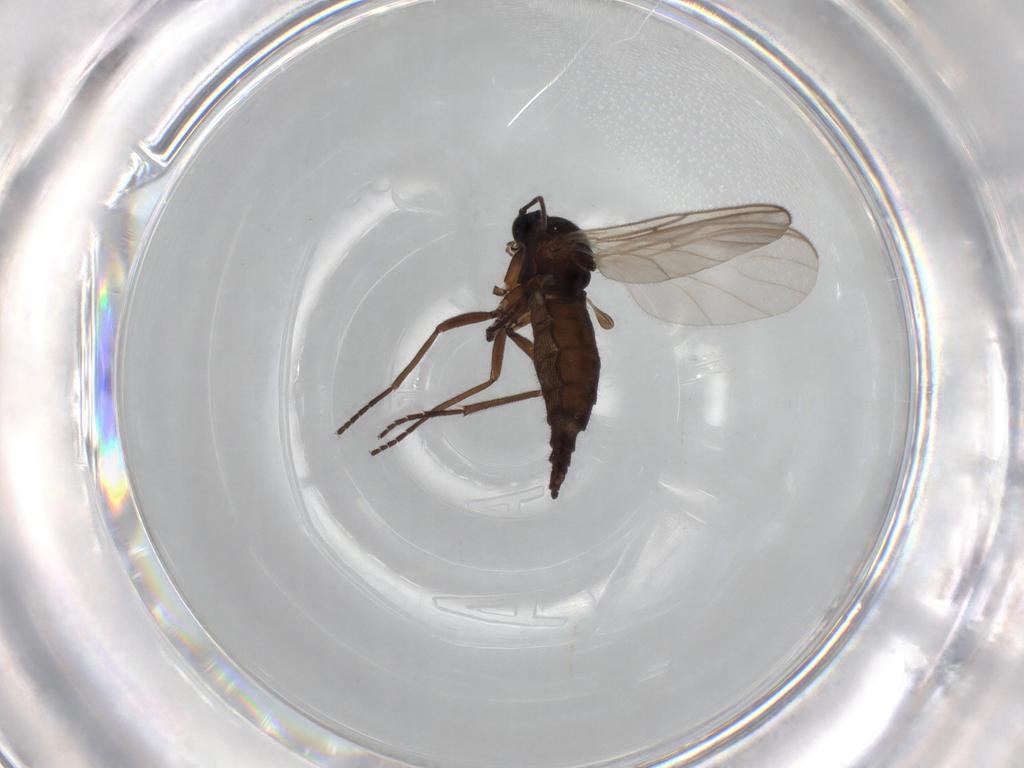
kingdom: Animalia
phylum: Arthropoda
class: Insecta
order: Diptera
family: Sciaridae
